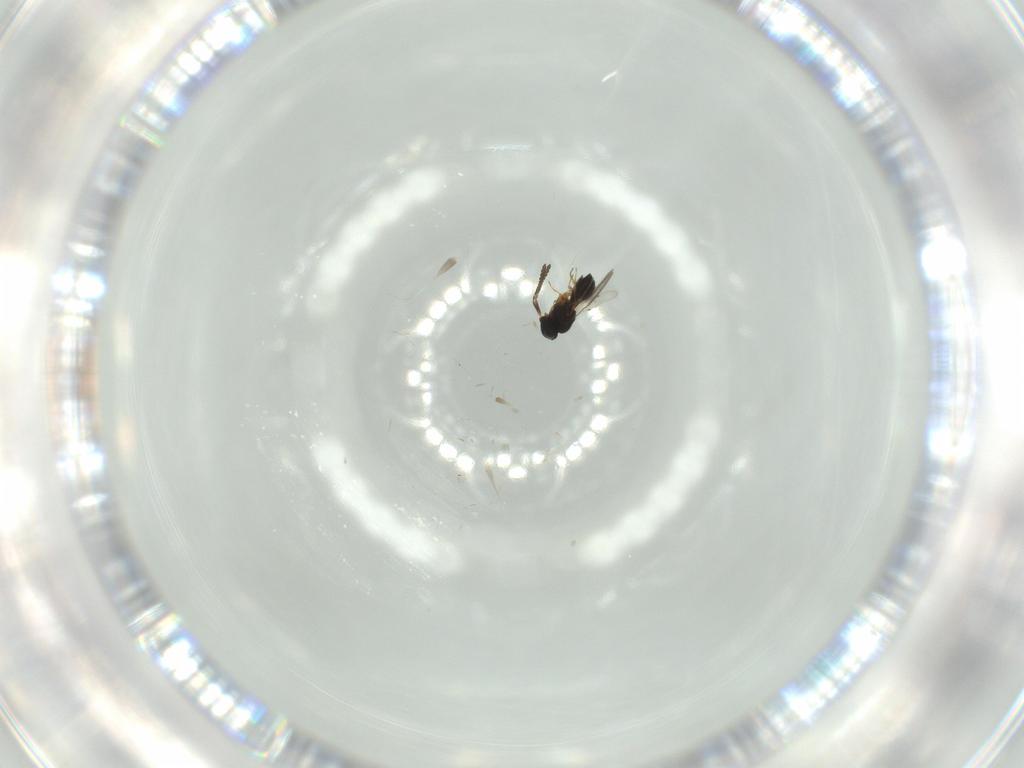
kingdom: Animalia
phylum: Arthropoda
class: Insecta
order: Hymenoptera
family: Scelionidae
